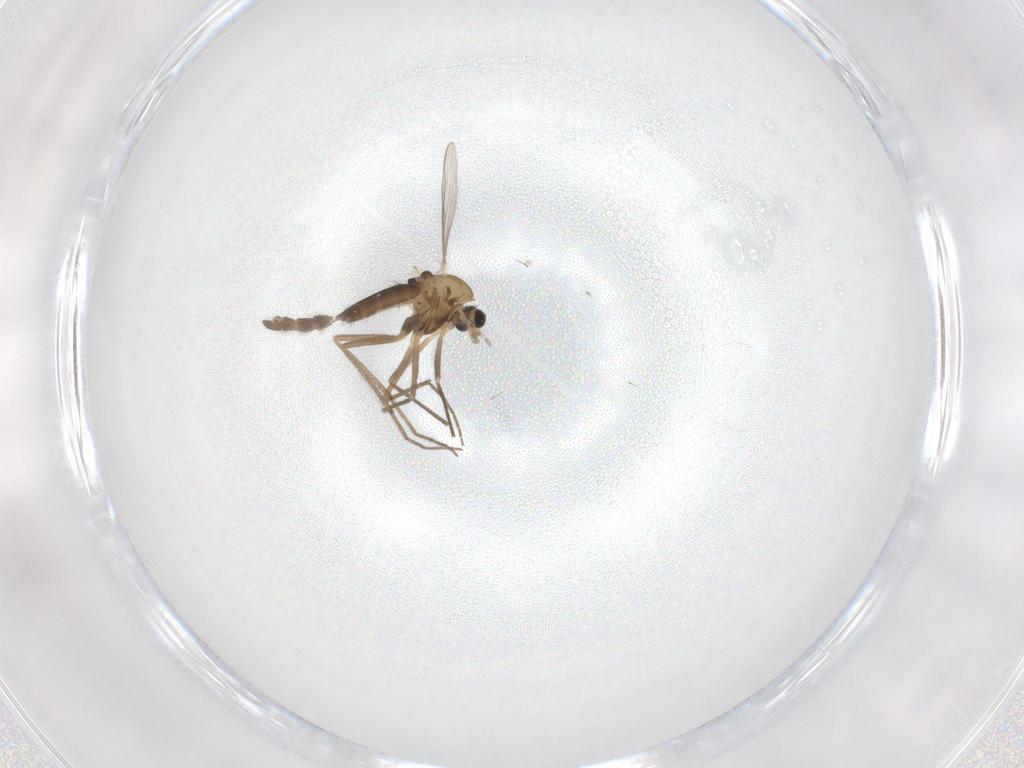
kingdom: Animalia
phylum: Arthropoda
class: Insecta
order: Diptera
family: Chironomidae
